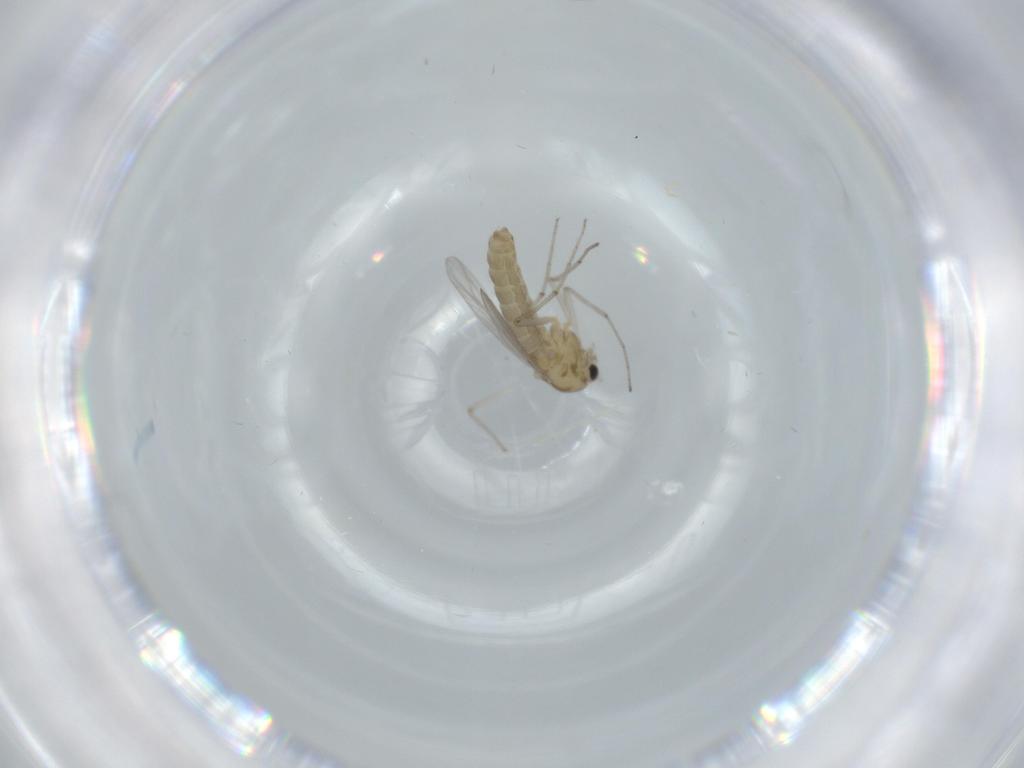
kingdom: Animalia
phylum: Arthropoda
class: Insecta
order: Diptera
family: Chironomidae
